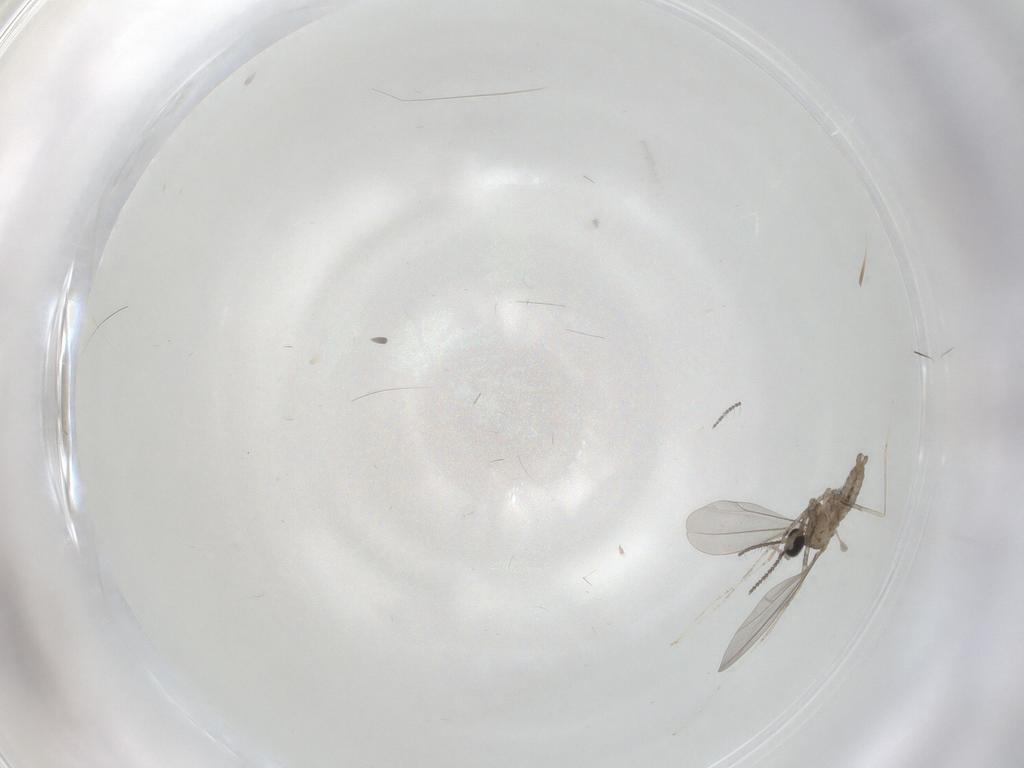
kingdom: Animalia
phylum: Arthropoda
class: Insecta
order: Diptera
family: Cecidomyiidae
